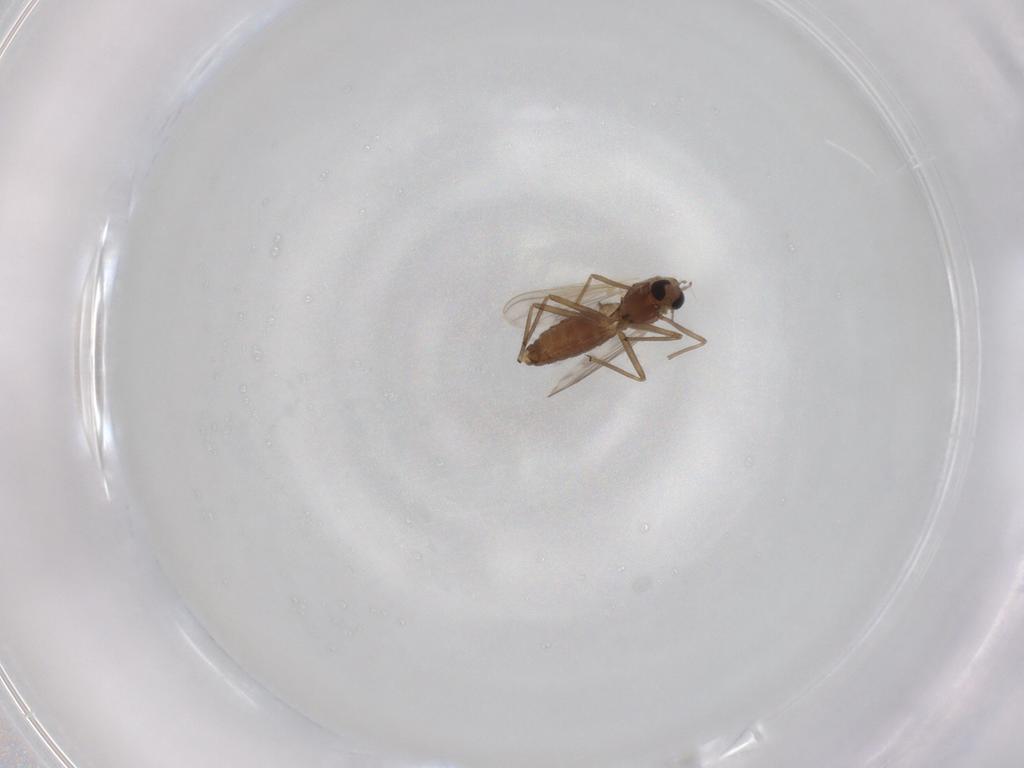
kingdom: Animalia
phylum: Arthropoda
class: Insecta
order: Diptera
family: Chironomidae
